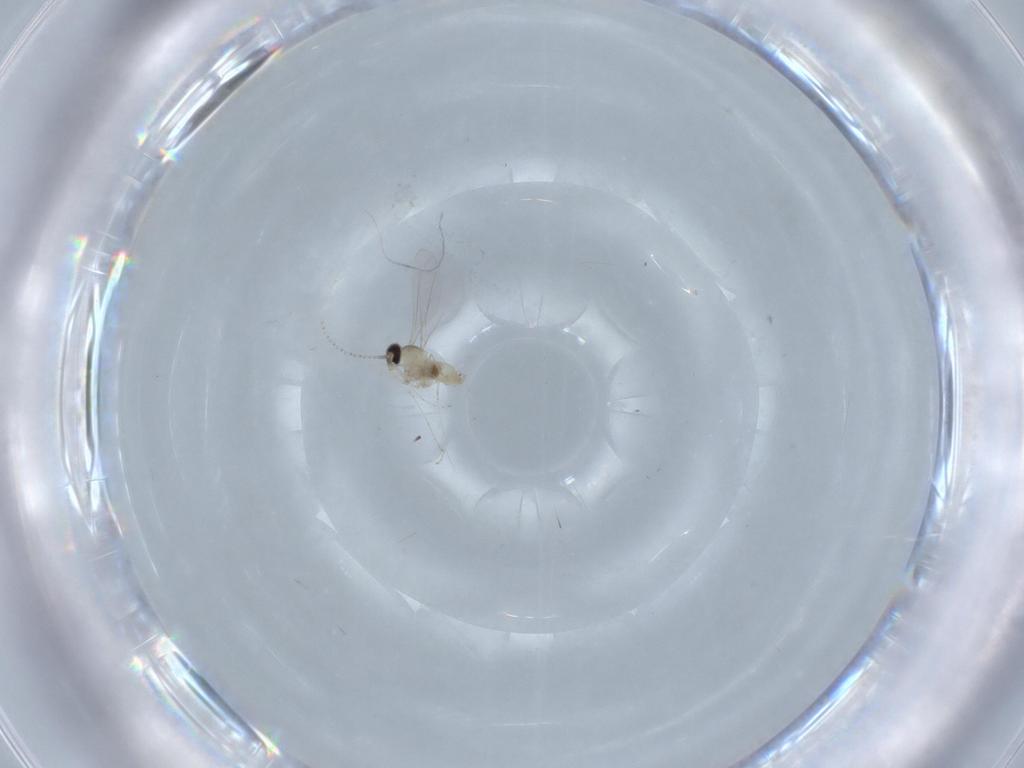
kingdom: Animalia
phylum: Arthropoda
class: Insecta
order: Diptera
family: Cecidomyiidae
